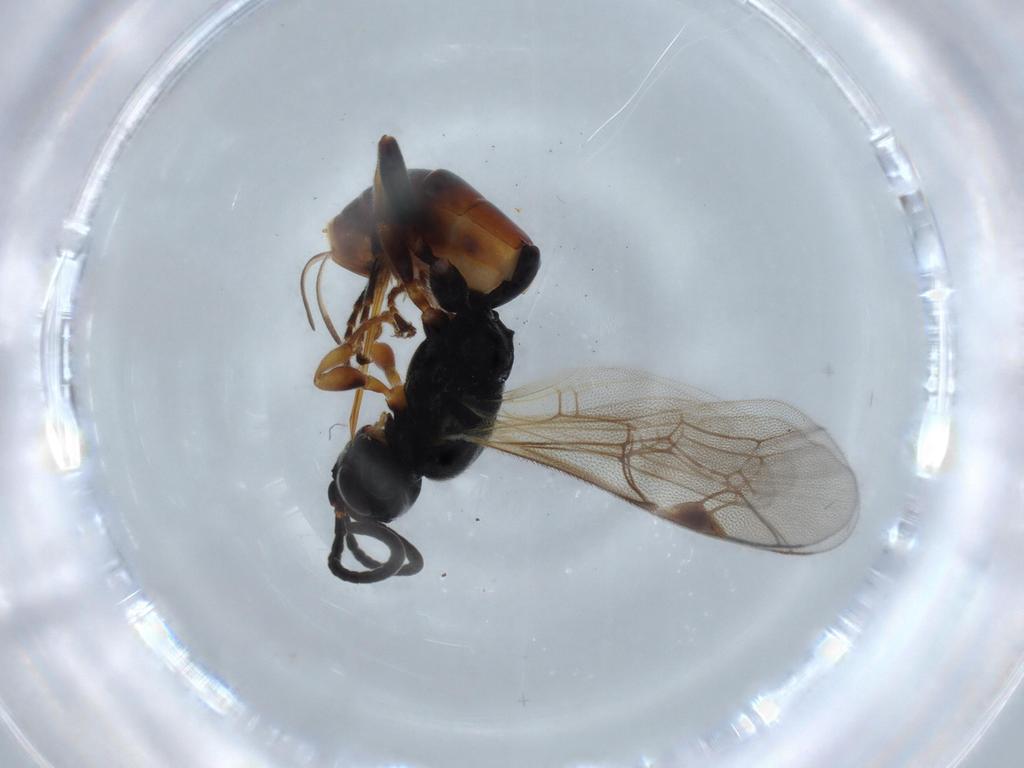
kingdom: Animalia
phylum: Arthropoda
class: Insecta
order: Hymenoptera
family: Ichneumonidae
